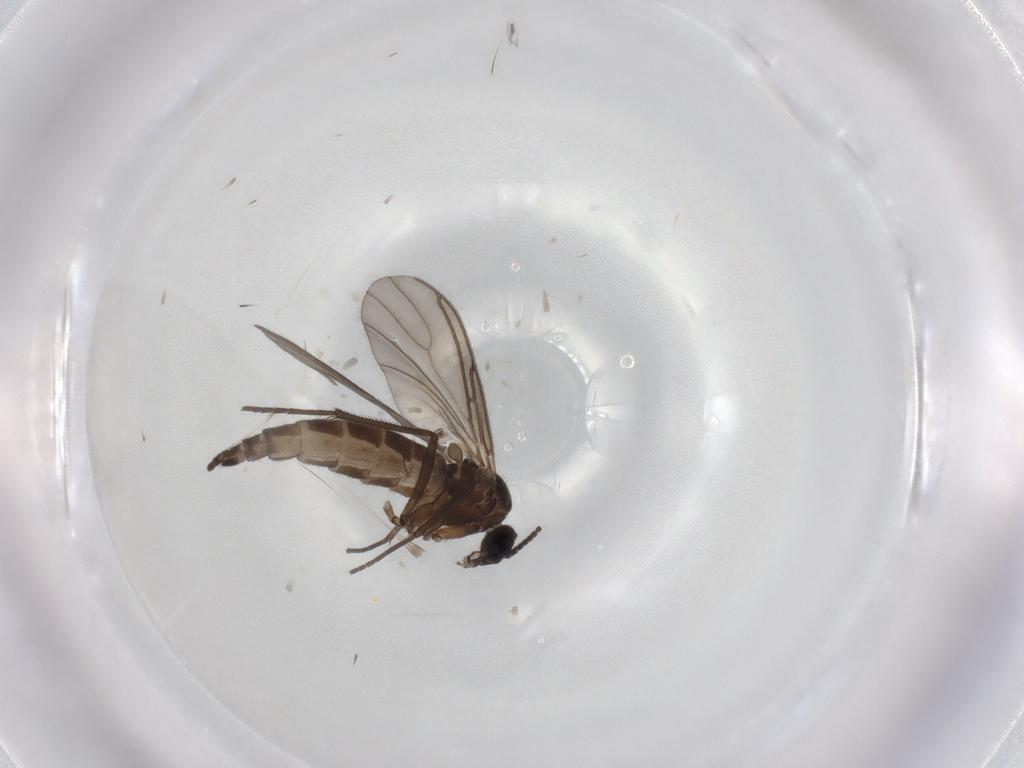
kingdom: Animalia
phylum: Arthropoda
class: Insecta
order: Diptera
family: Sciaridae
